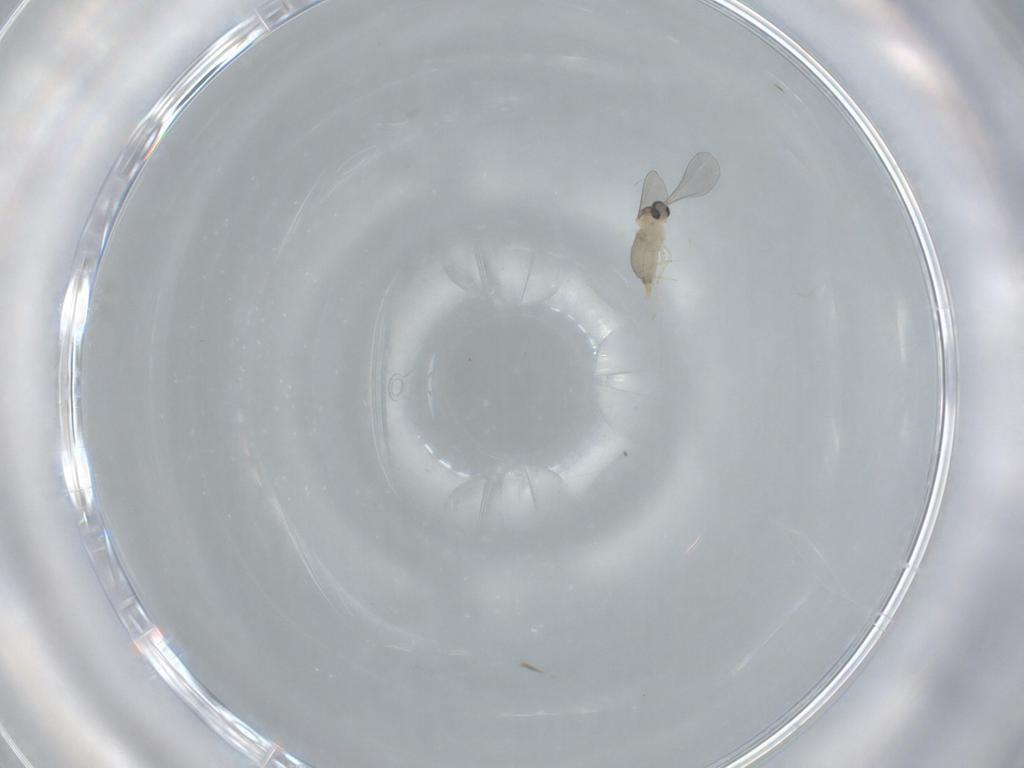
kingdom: Animalia
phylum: Arthropoda
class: Insecta
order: Diptera
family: Cecidomyiidae
